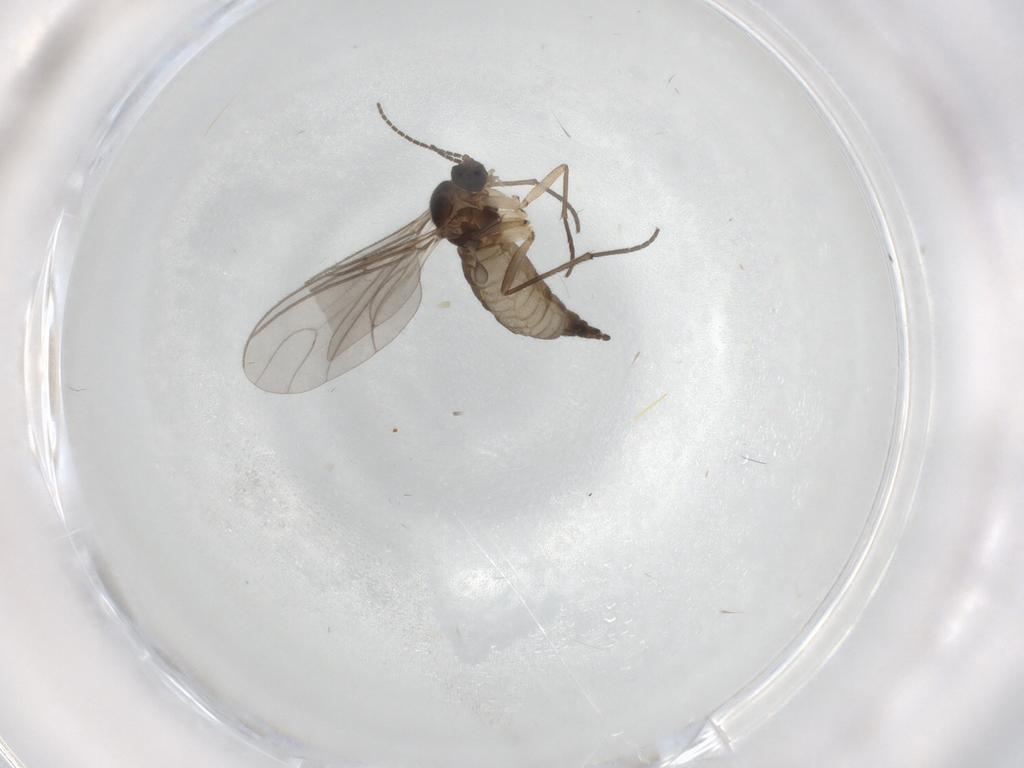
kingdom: Animalia
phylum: Arthropoda
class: Insecta
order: Diptera
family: Sciaridae
